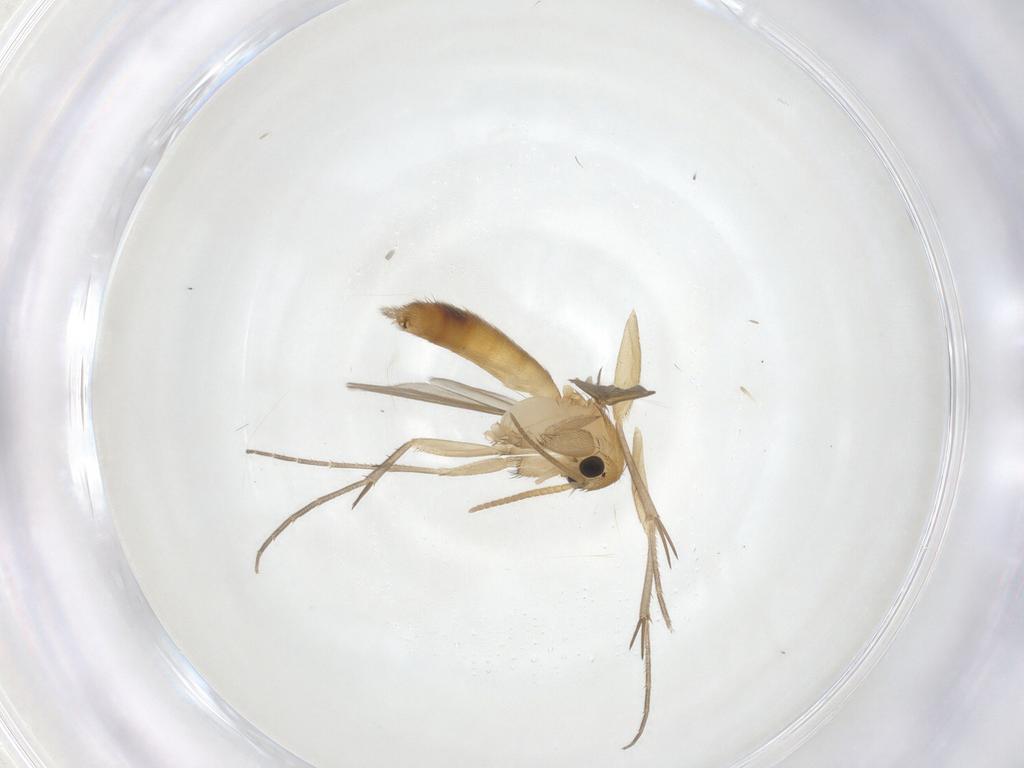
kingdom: Animalia
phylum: Arthropoda
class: Insecta
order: Diptera
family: Mycetophilidae
